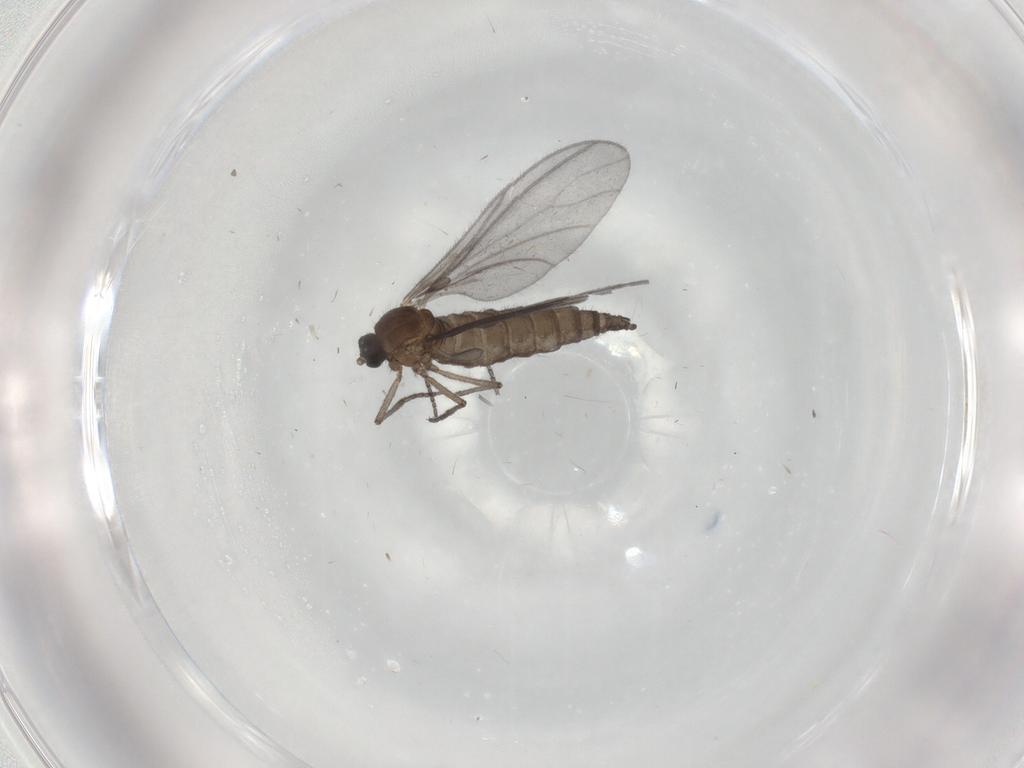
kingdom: Animalia
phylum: Arthropoda
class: Insecta
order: Diptera
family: Sciaridae
